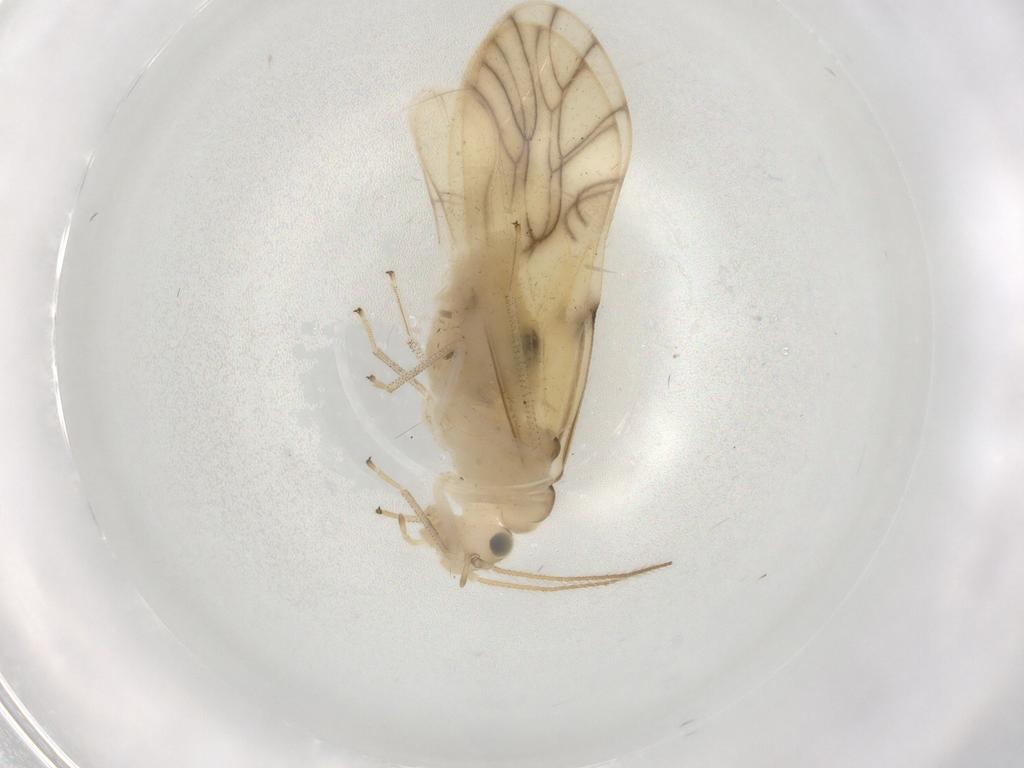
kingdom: Animalia
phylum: Arthropoda
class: Insecta
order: Psocodea
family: Caeciliusidae
